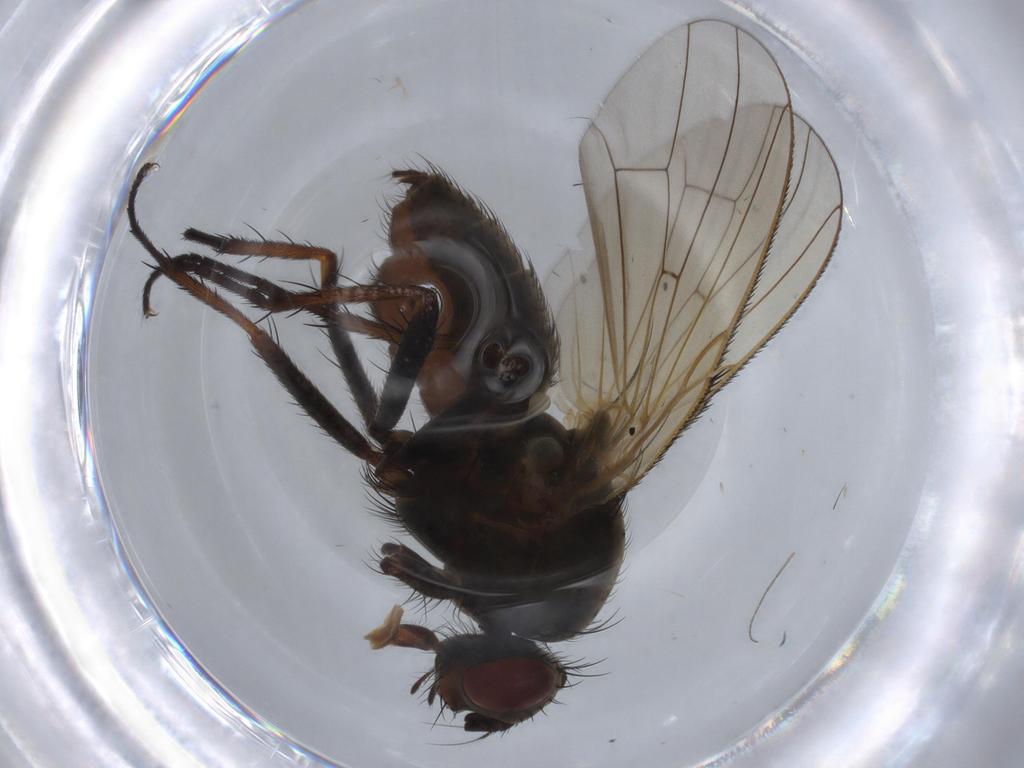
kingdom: Animalia
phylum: Arthropoda
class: Insecta
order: Diptera
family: Anthomyiidae
